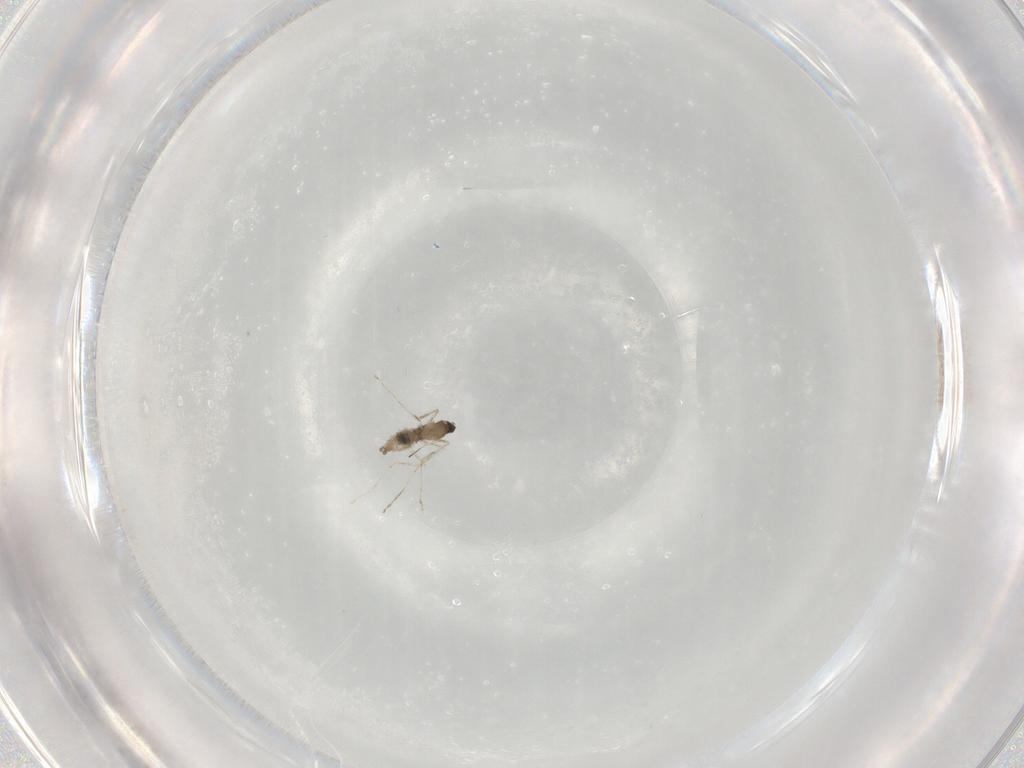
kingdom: Animalia
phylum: Arthropoda
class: Insecta
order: Diptera
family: Cecidomyiidae
